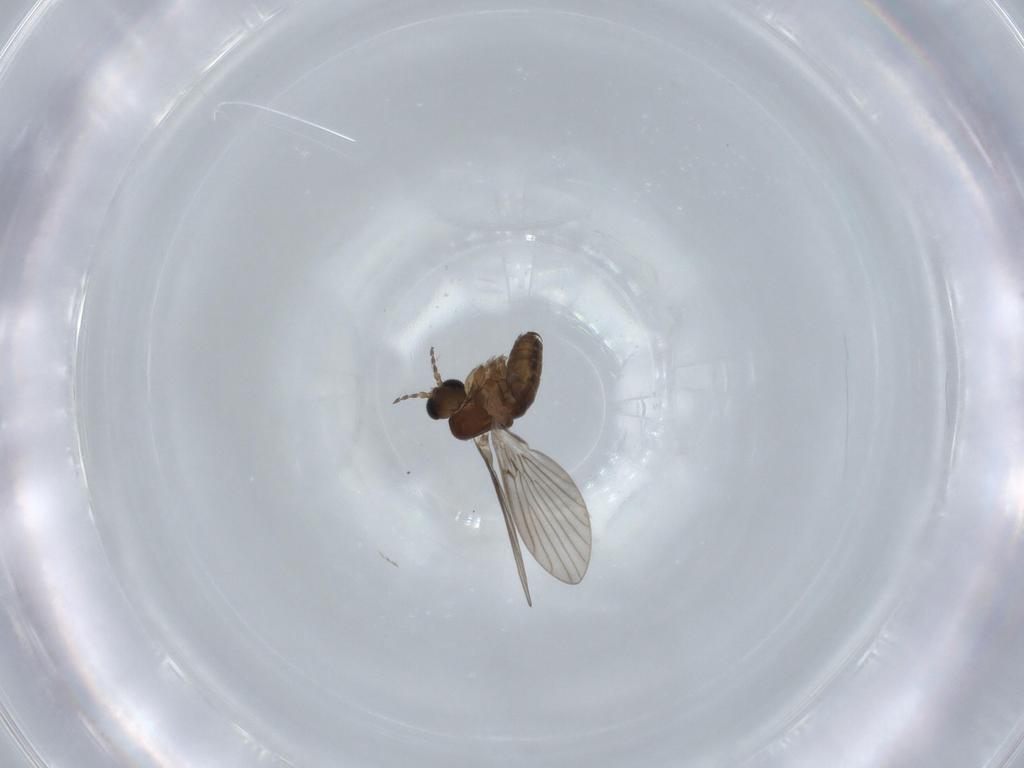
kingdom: Animalia
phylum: Arthropoda
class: Insecta
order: Diptera
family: Psychodidae
